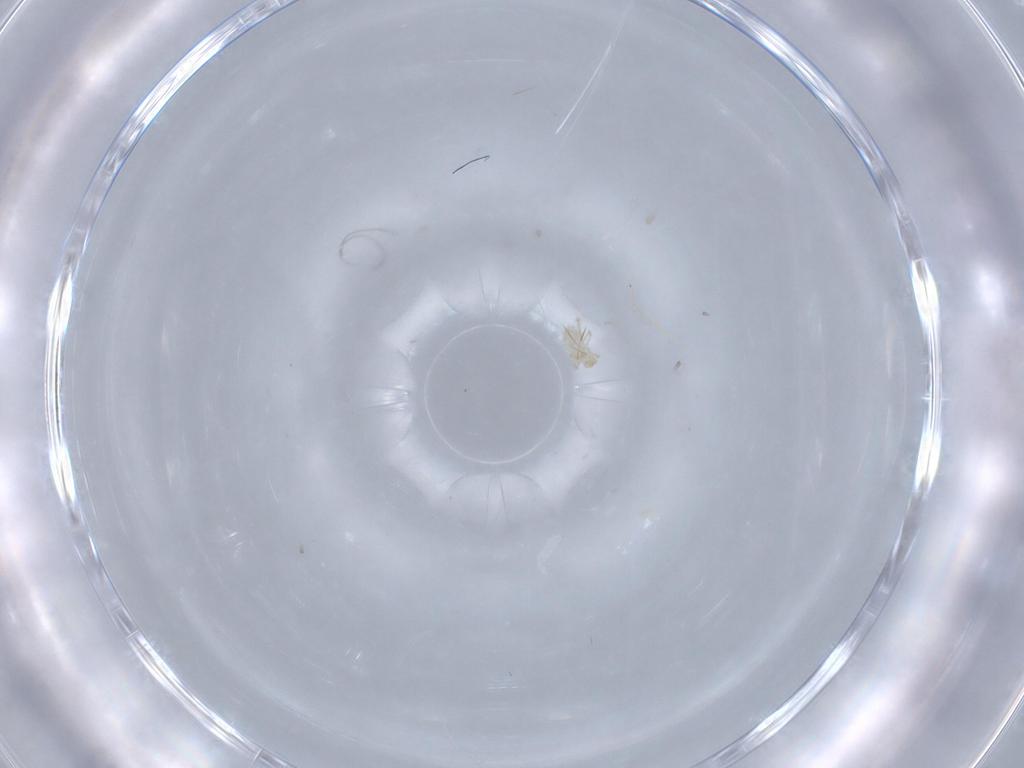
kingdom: Animalia
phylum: Arthropoda
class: Arachnida
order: Trombidiformes
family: Erythraeidae
